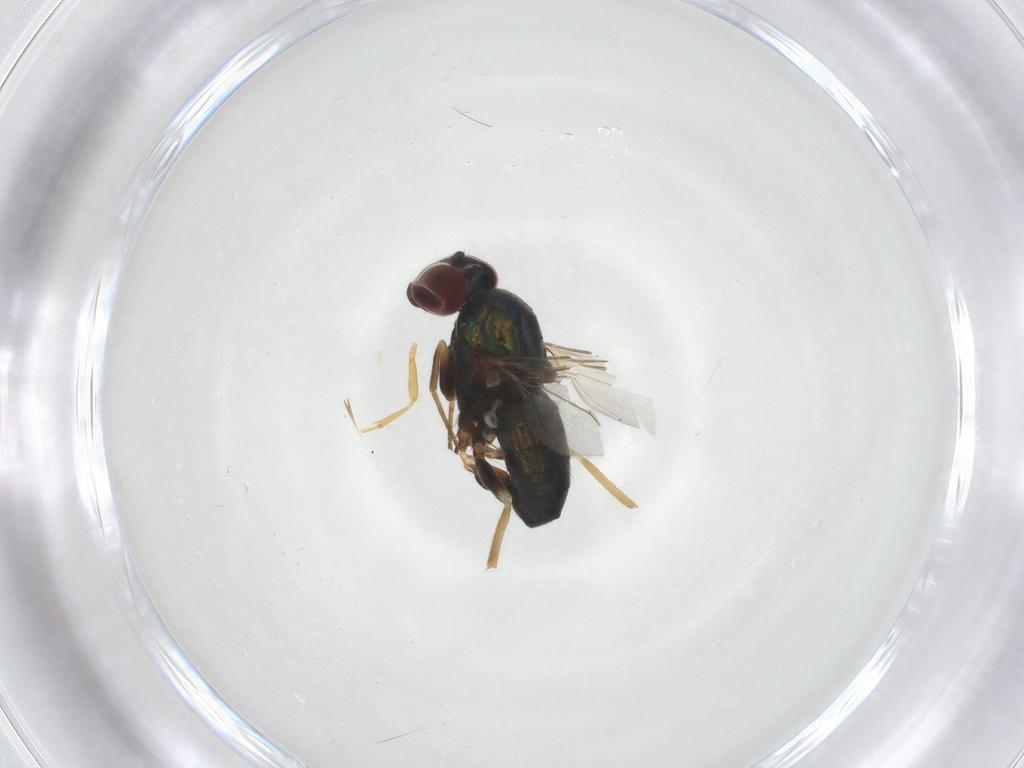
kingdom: Animalia
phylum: Arthropoda
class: Insecta
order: Diptera
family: Dolichopodidae
